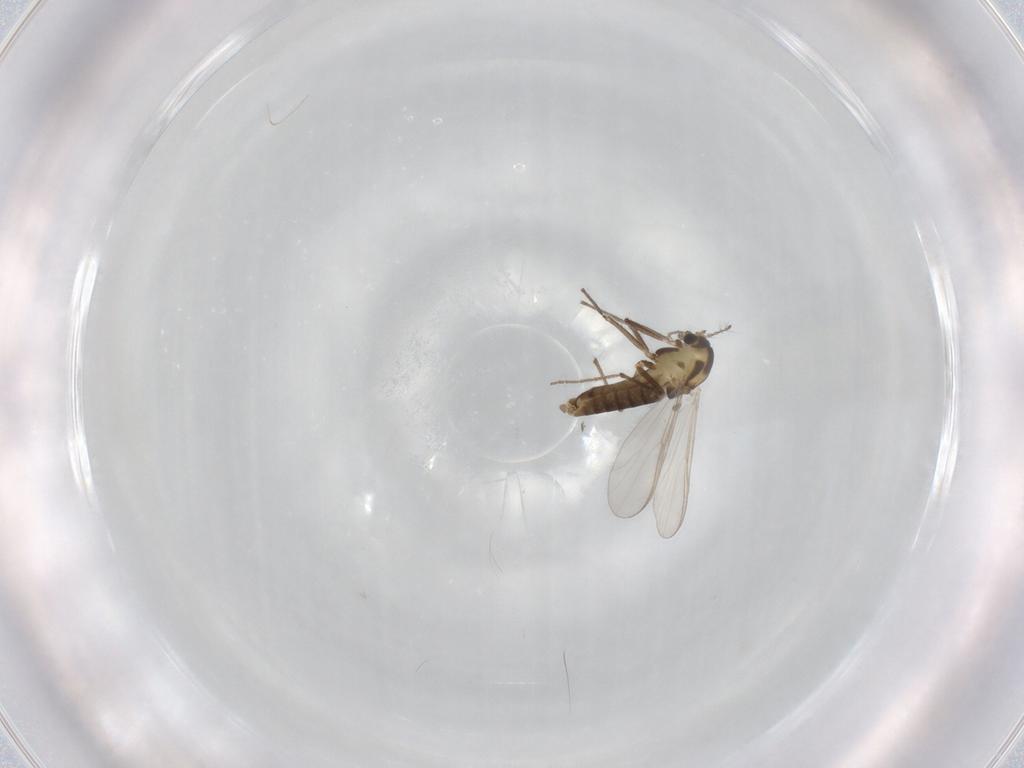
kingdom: Animalia
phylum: Arthropoda
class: Insecta
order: Diptera
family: Chironomidae
